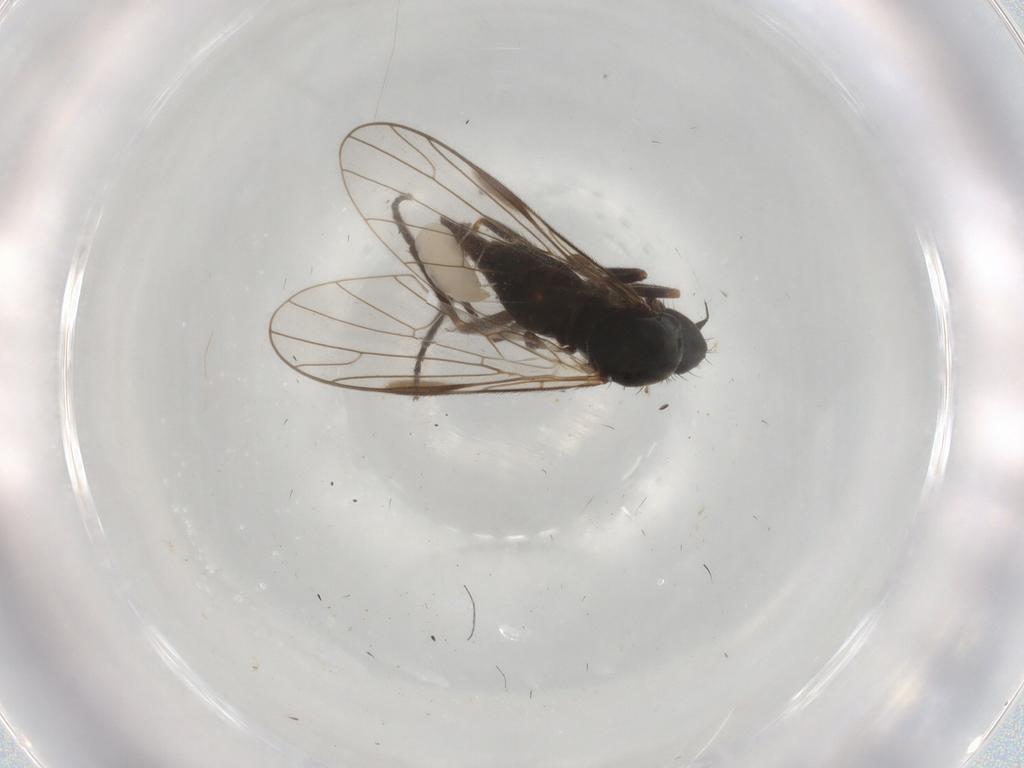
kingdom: Animalia
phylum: Arthropoda
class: Insecta
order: Diptera
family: Empididae
